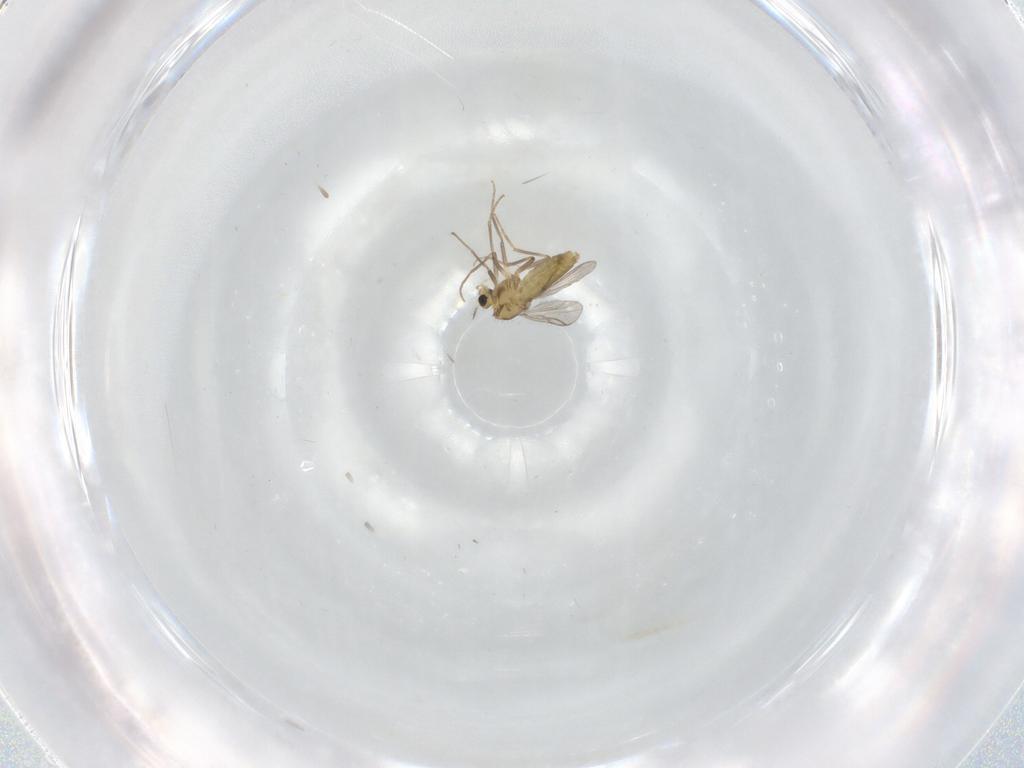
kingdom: Animalia
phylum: Arthropoda
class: Insecta
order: Diptera
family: Chironomidae
